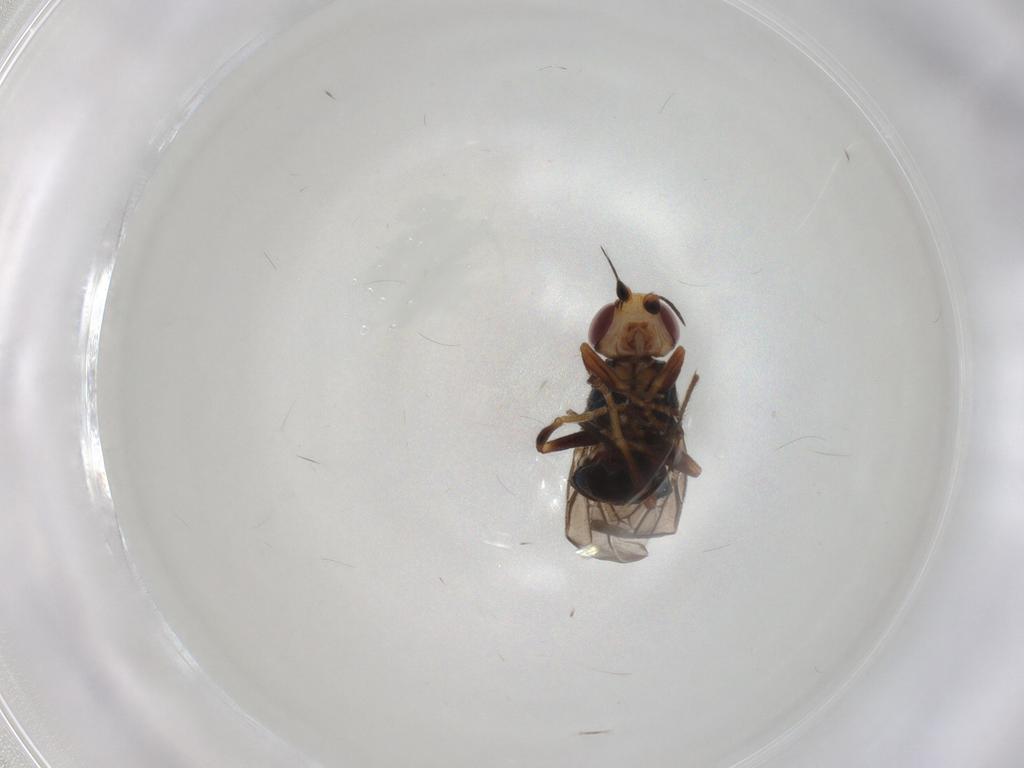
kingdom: Animalia
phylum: Arthropoda
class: Insecta
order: Diptera
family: Chloropidae
